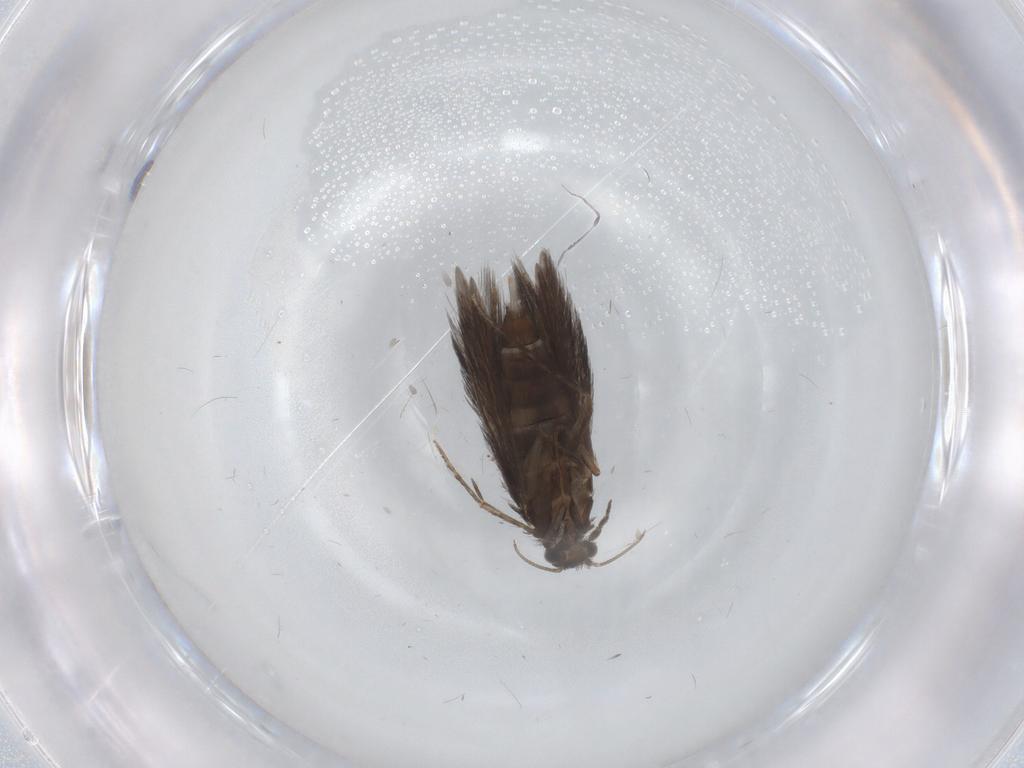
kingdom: Animalia
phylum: Arthropoda
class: Insecta
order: Trichoptera
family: Hydroptilidae
